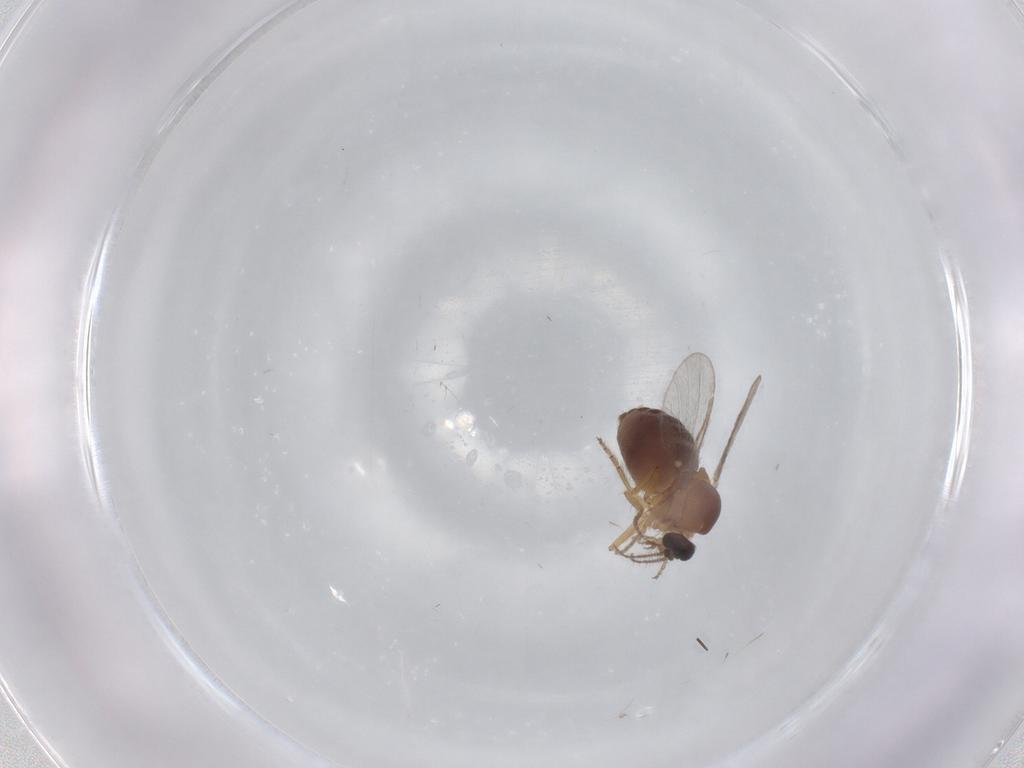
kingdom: Animalia
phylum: Arthropoda
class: Insecta
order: Diptera
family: Ceratopogonidae
